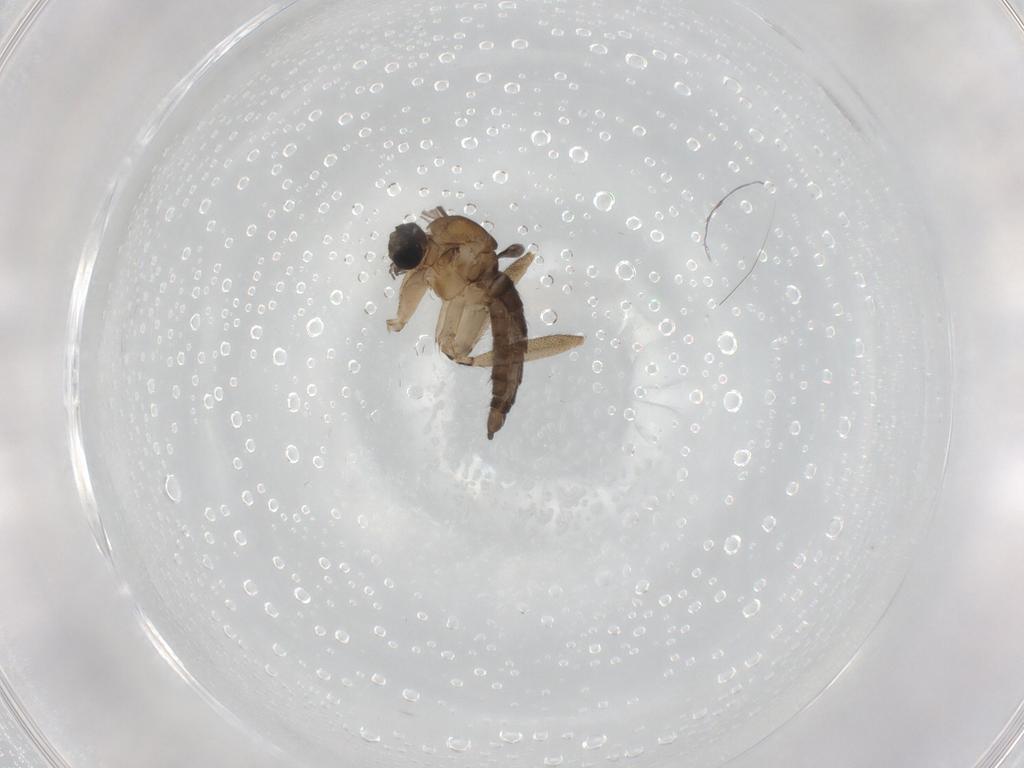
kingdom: Animalia
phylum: Arthropoda
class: Insecta
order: Diptera
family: Sciaridae
